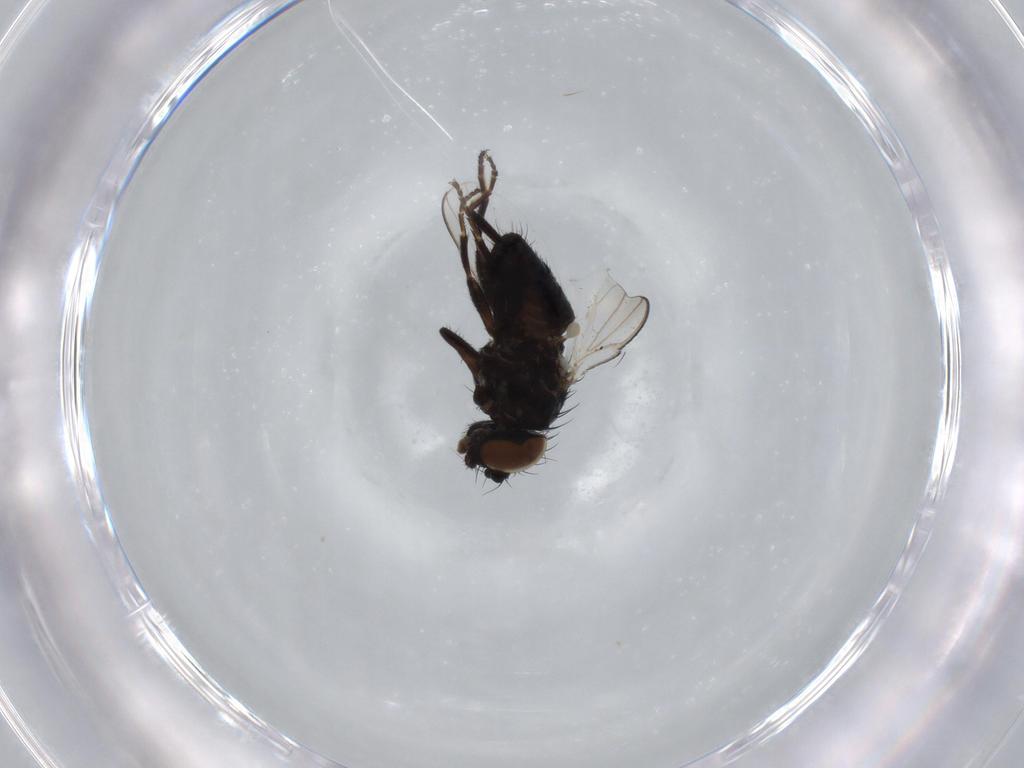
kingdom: Animalia
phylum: Arthropoda
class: Insecta
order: Diptera
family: Milichiidae
